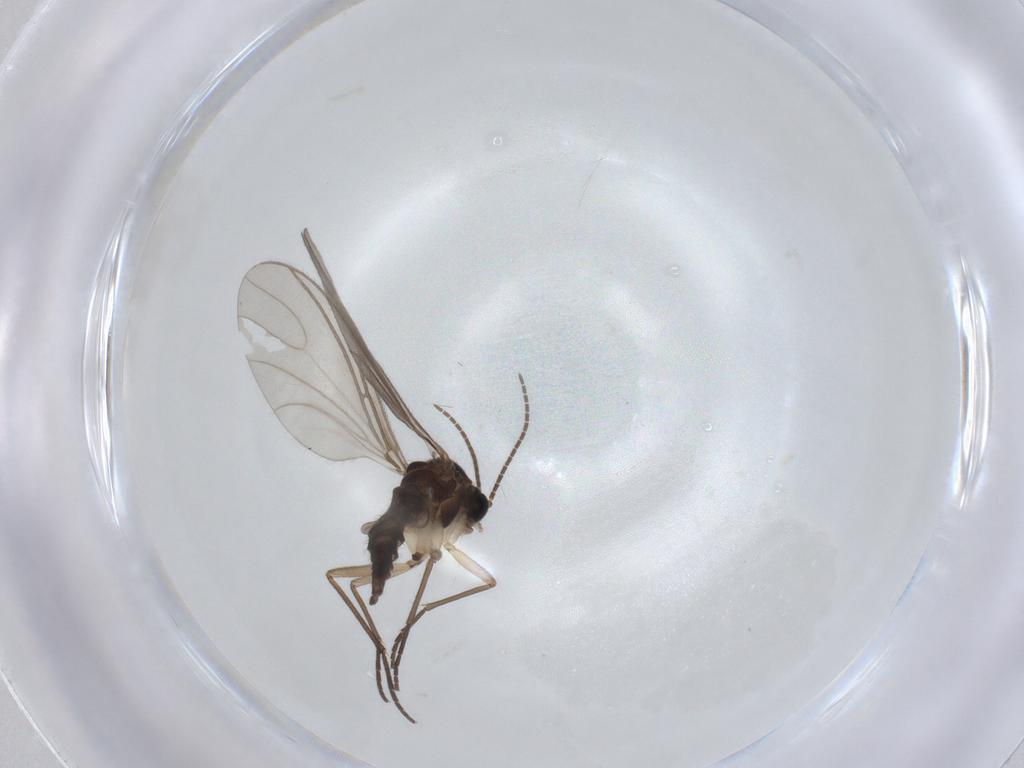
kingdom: Animalia
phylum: Arthropoda
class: Insecta
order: Diptera
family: Sciaridae
